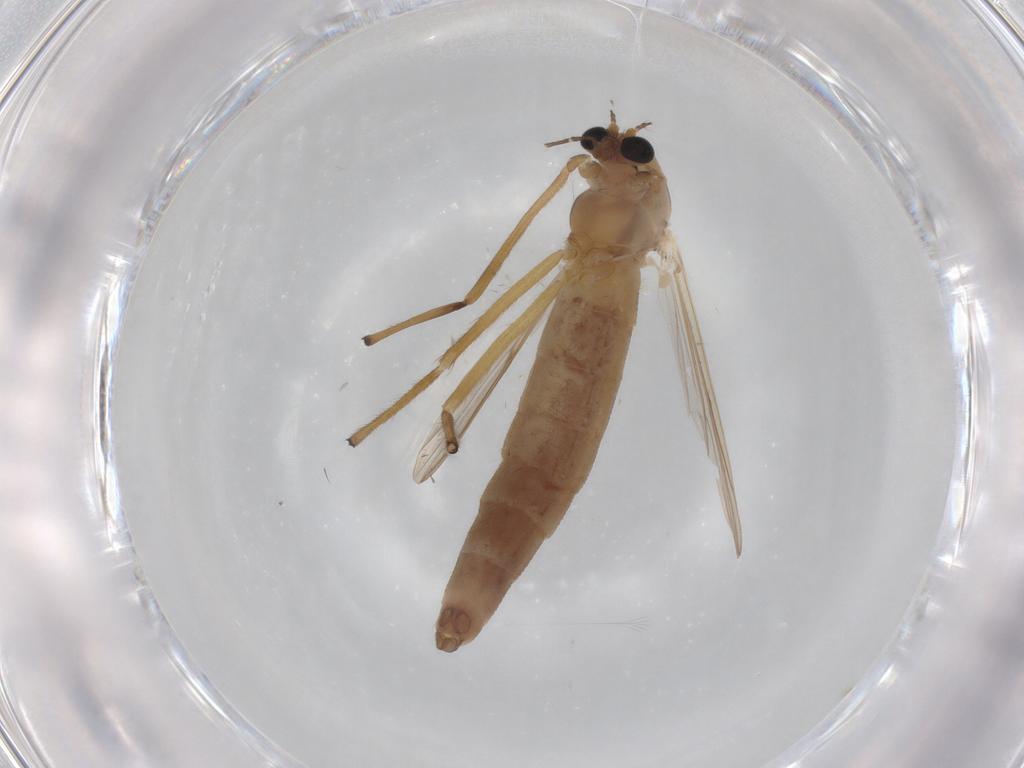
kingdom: Animalia
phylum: Arthropoda
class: Insecta
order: Diptera
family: Chironomidae
